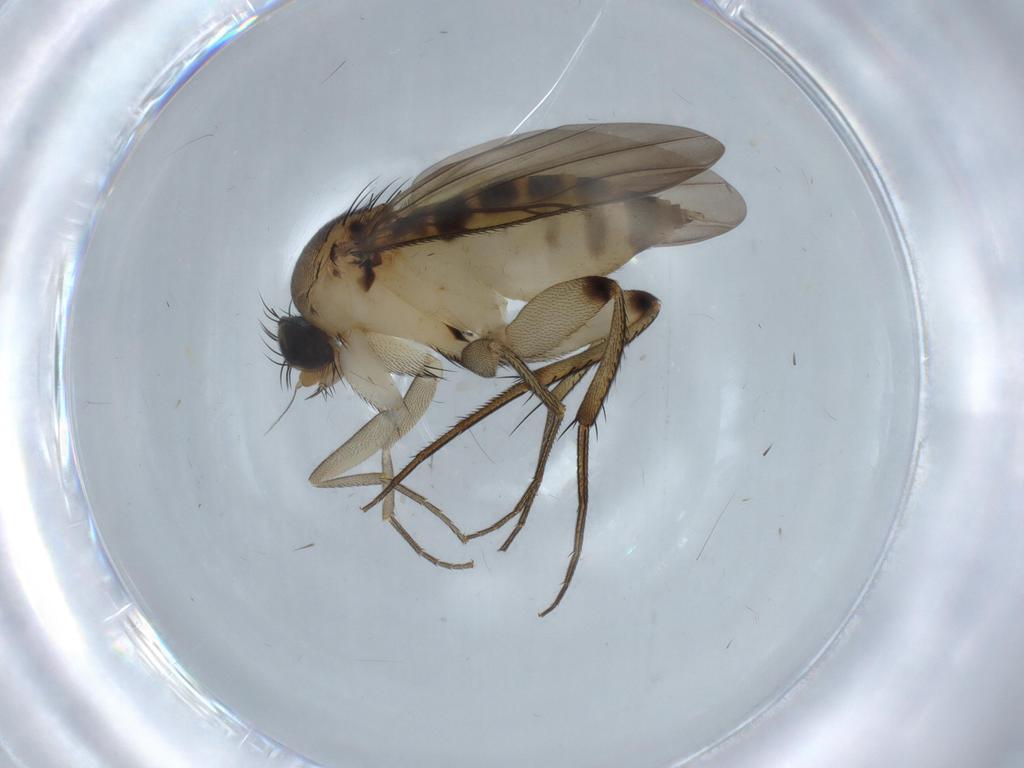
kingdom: Animalia
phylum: Arthropoda
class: Insecta
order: Diptera
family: Phoridae
